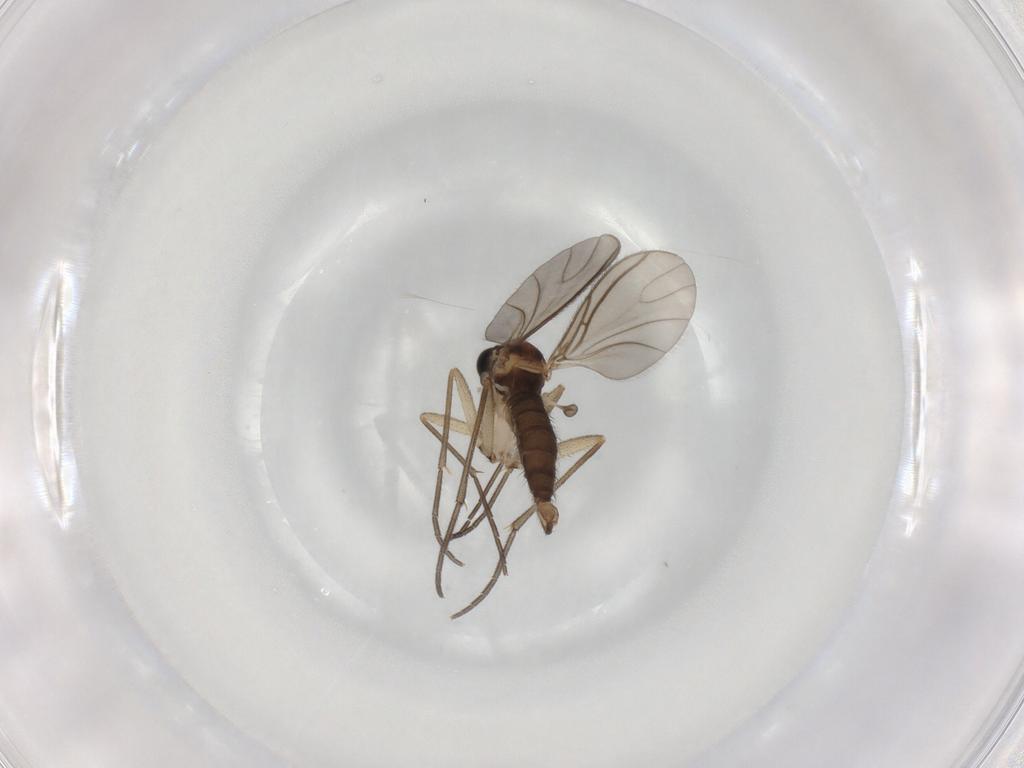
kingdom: Animalia
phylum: Arthropoda
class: Insecta
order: Diptera
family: Sciaridae
